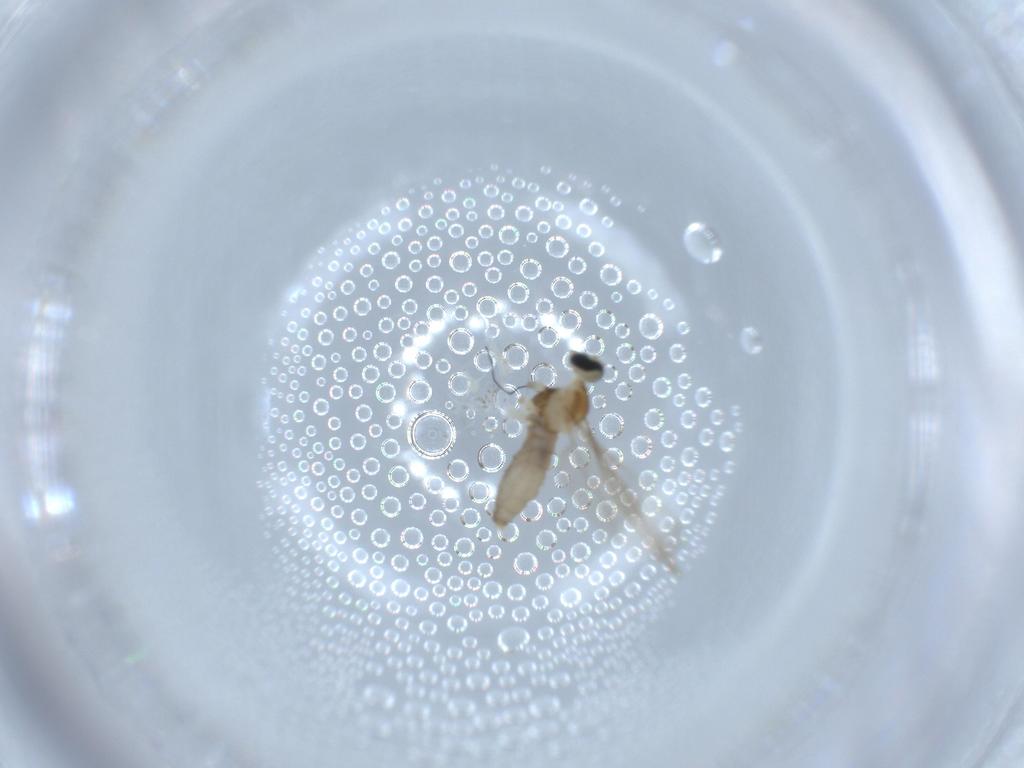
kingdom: Animalia
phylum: Arthropoda
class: Insecta
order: Diptera
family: Cecidomyiidae
